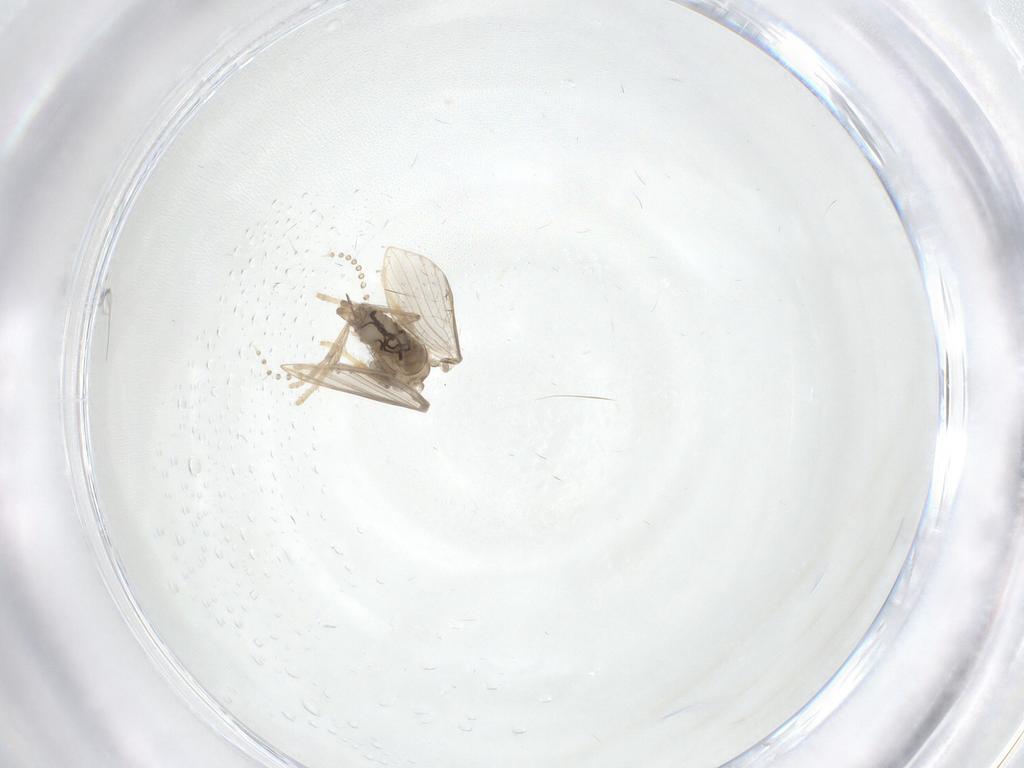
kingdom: Animalia
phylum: Arthropoda
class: Insecta
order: Diptera
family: Psychodidae
